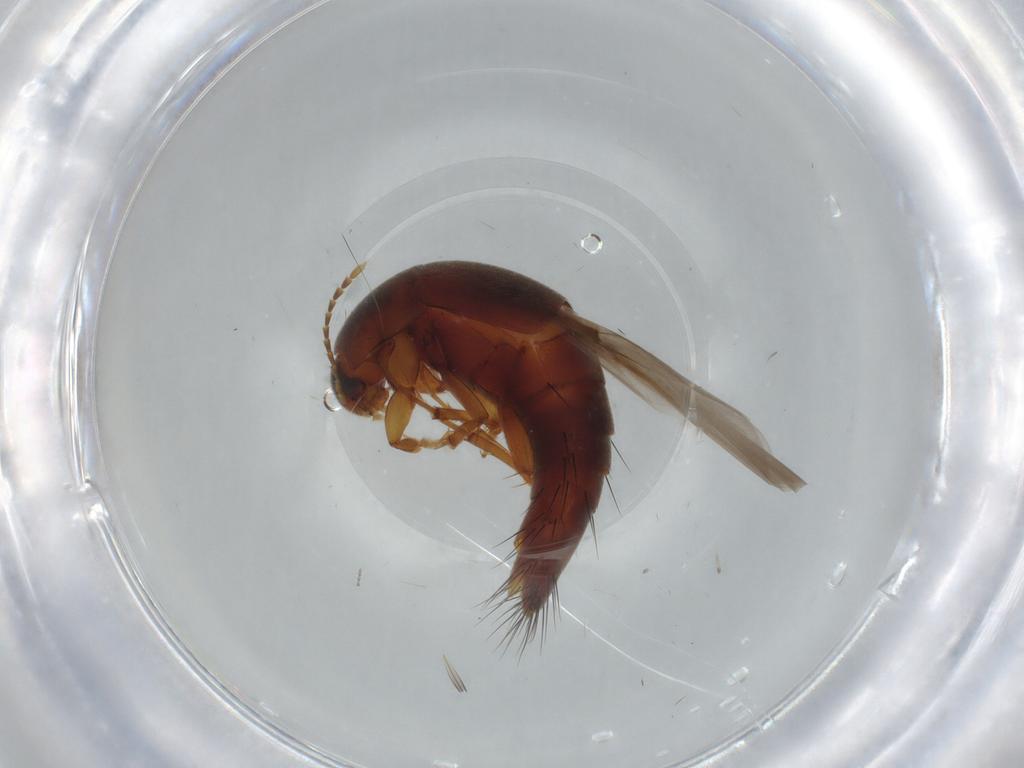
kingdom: Animalia
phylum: Arthropoda
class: Insecta
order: Coleoptera
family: Staphylinidae
